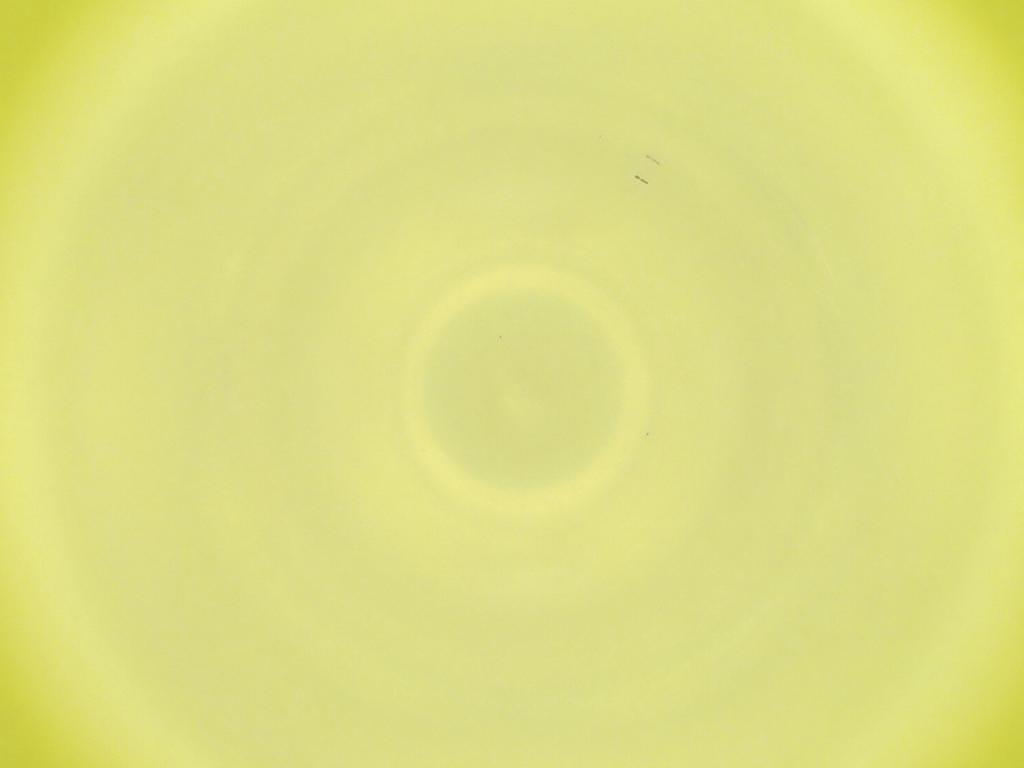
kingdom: Animalia
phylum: Arthropoda
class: Insecta
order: Diptera
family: Cecidomyiidae
